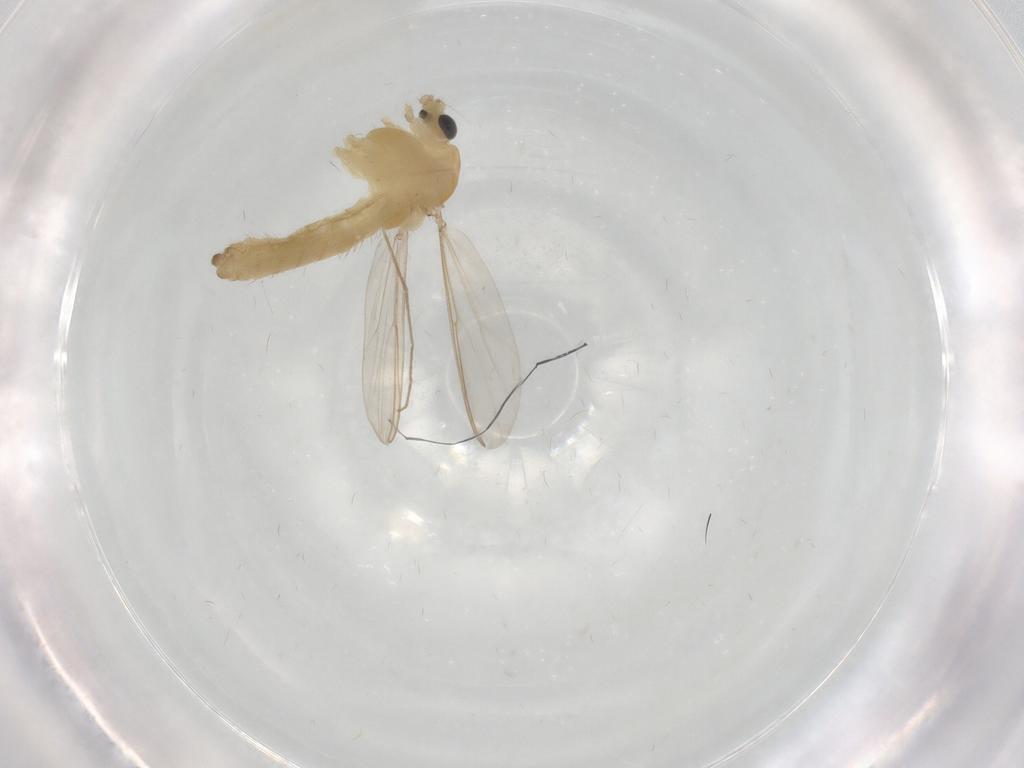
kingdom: Animalia
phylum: Arthropoda
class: Insecta
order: Diptera
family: Chironomidae
